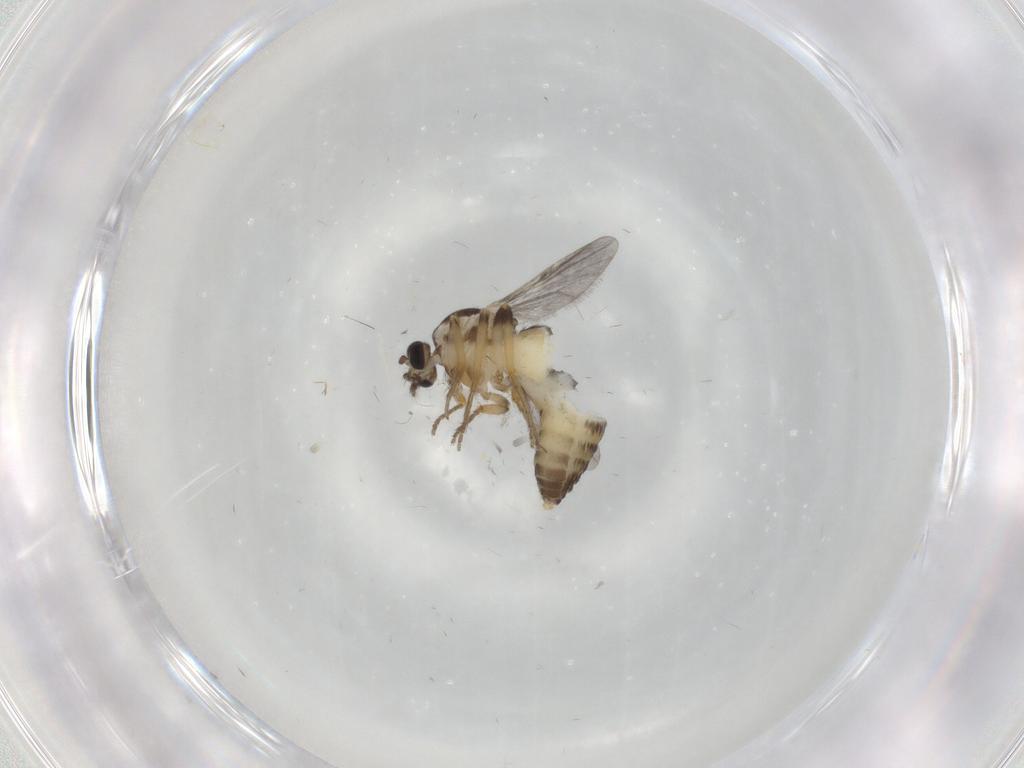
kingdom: Animalia
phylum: Arthropoda
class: Insecta
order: Diptera
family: Ceratopogonidae
